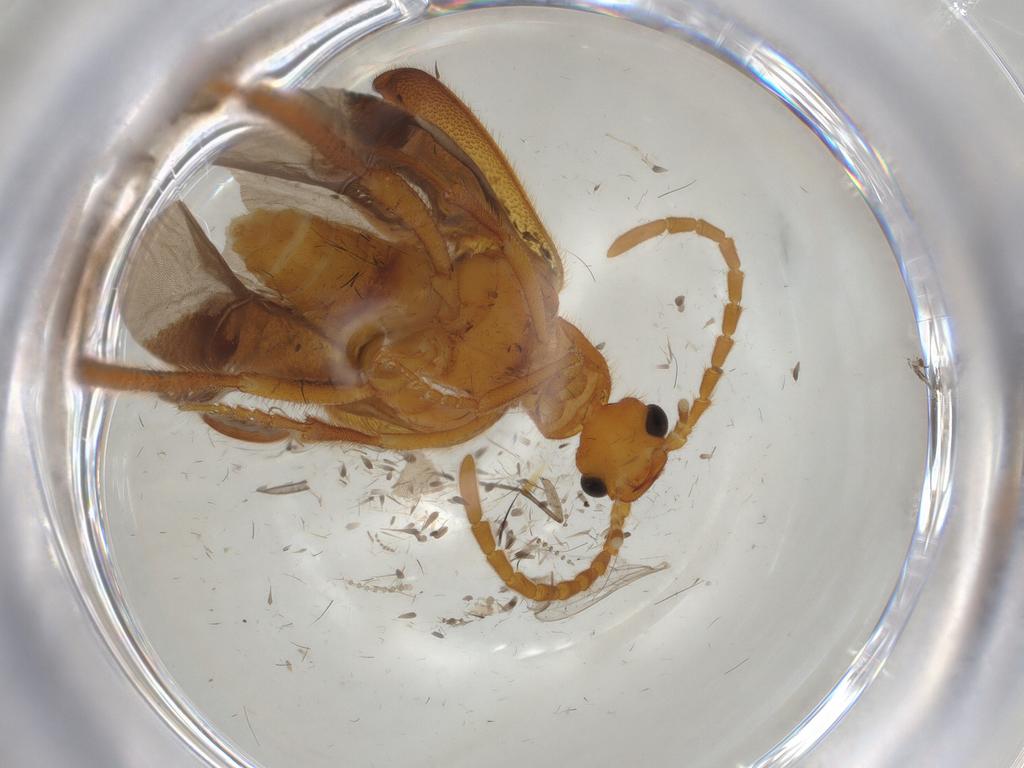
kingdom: Animalia
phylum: Arthropoda
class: Insecta
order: Coleoptera
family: Ripiphoridae
